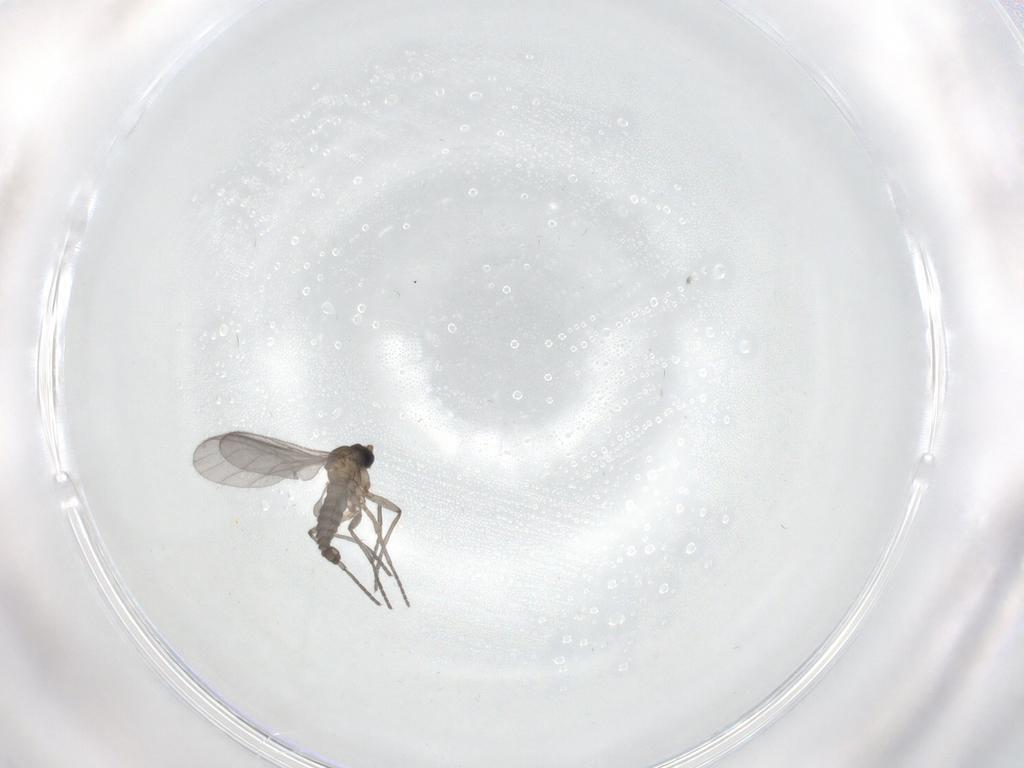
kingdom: Animalia
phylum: Arthropoda
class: Insecta
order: Diptera
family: Sciaridae
